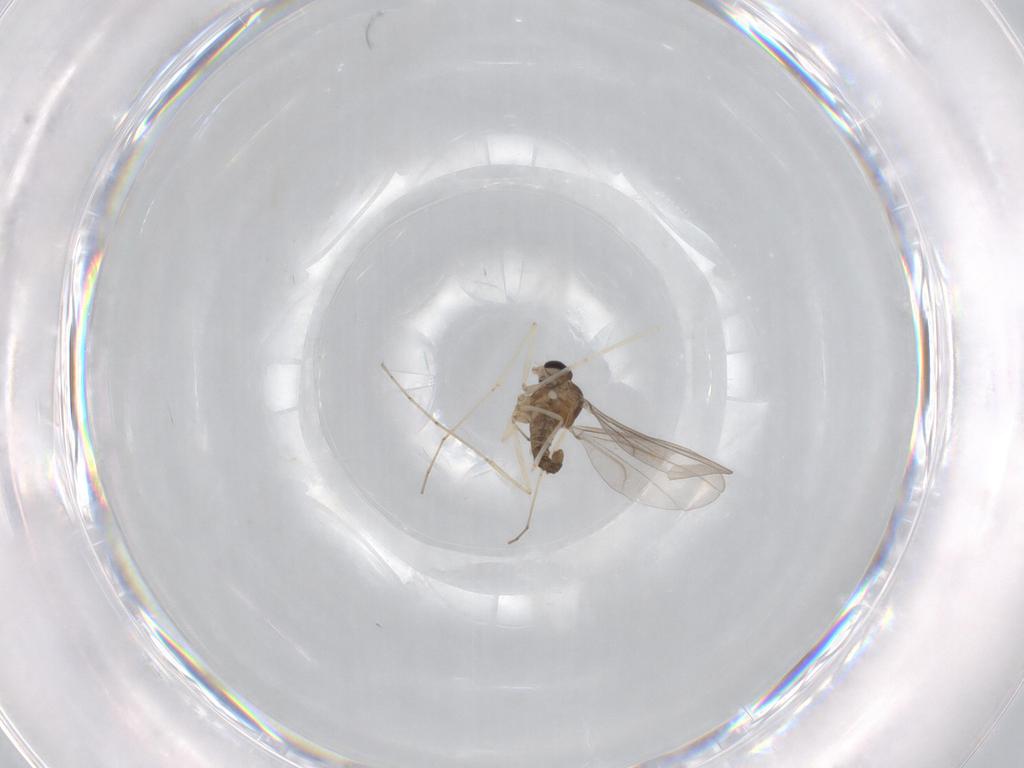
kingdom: Animalia
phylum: Arthropoda
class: Insecta
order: Diptera
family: Cecidomyiidae
